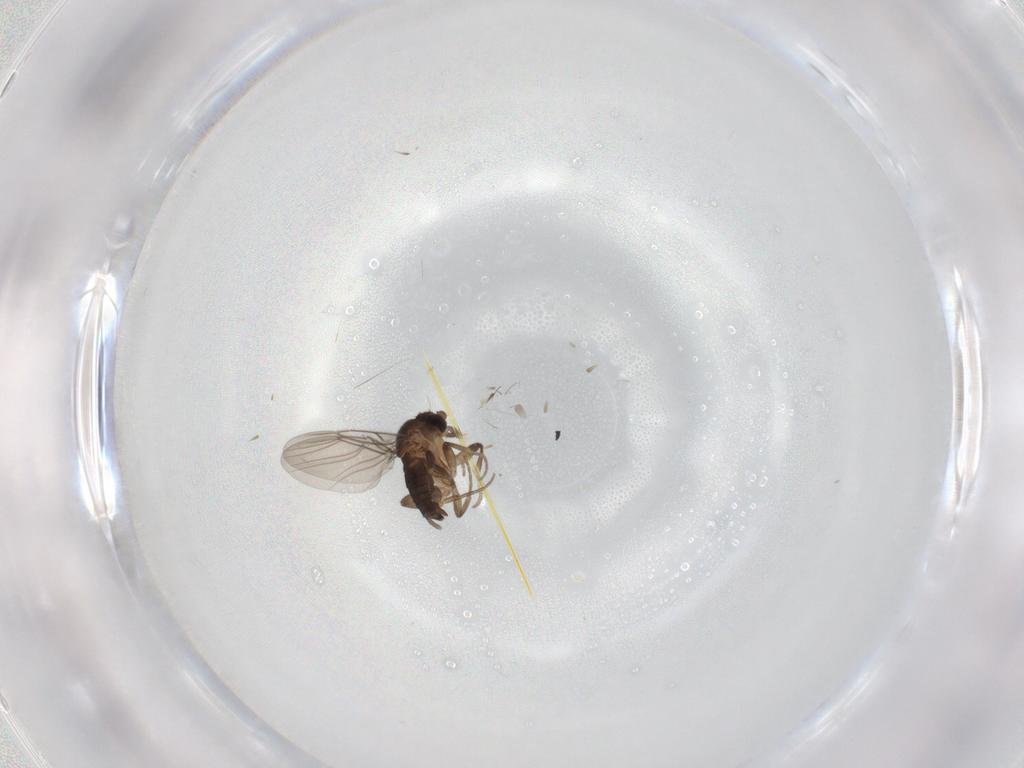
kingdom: Animalia
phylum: Arthropoda
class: Insecta
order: Diptera
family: Phoridae
